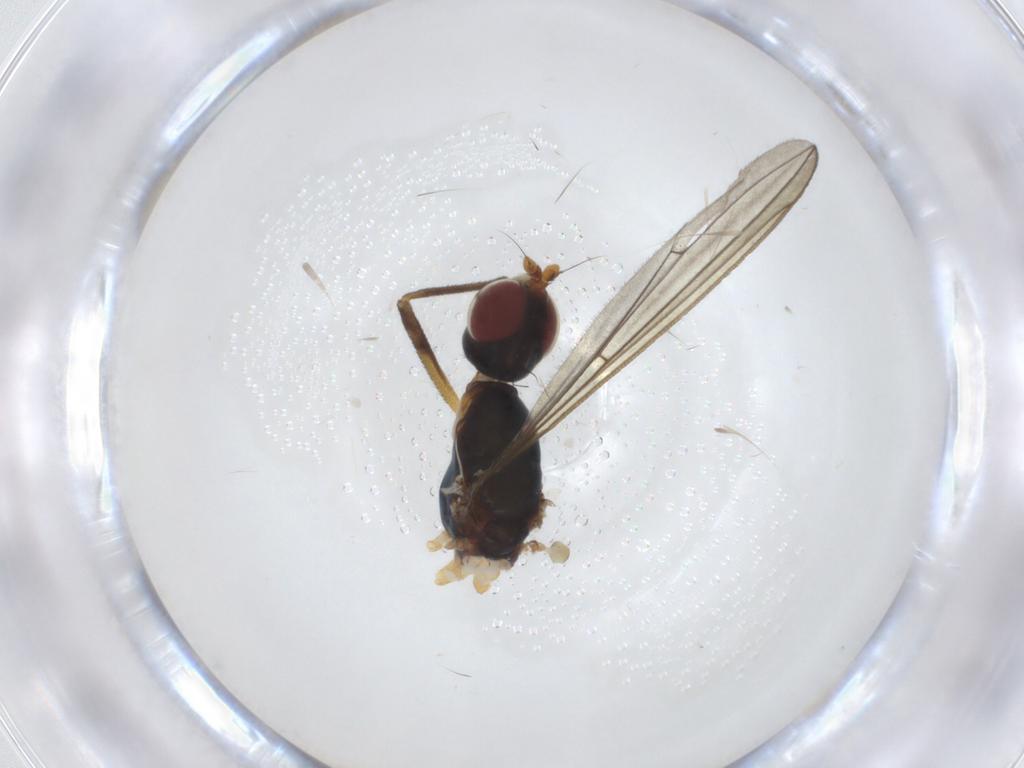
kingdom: Animalia
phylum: Arthropoda
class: Insecta
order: Diptera
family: Micropezidae
